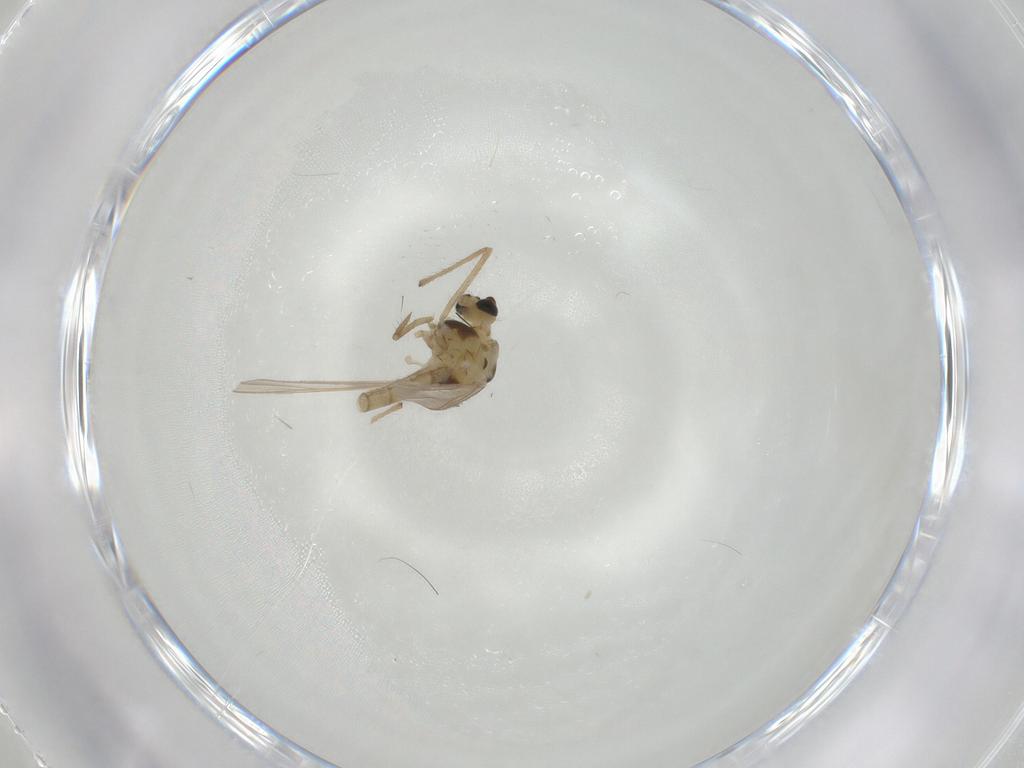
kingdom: Animalia
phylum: Arthropoda
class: Insecta
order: Diptera
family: Chironomidae
